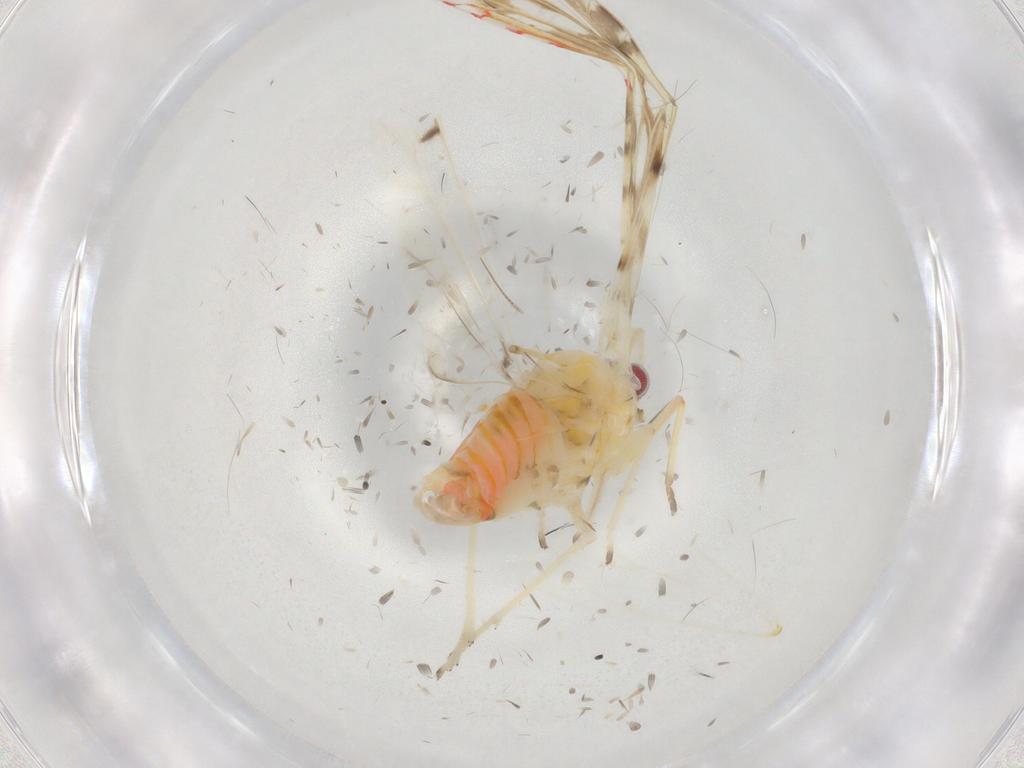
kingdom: Animalia
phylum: Arthropoda
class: Insecta
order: Hemiptera
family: Derbidae
